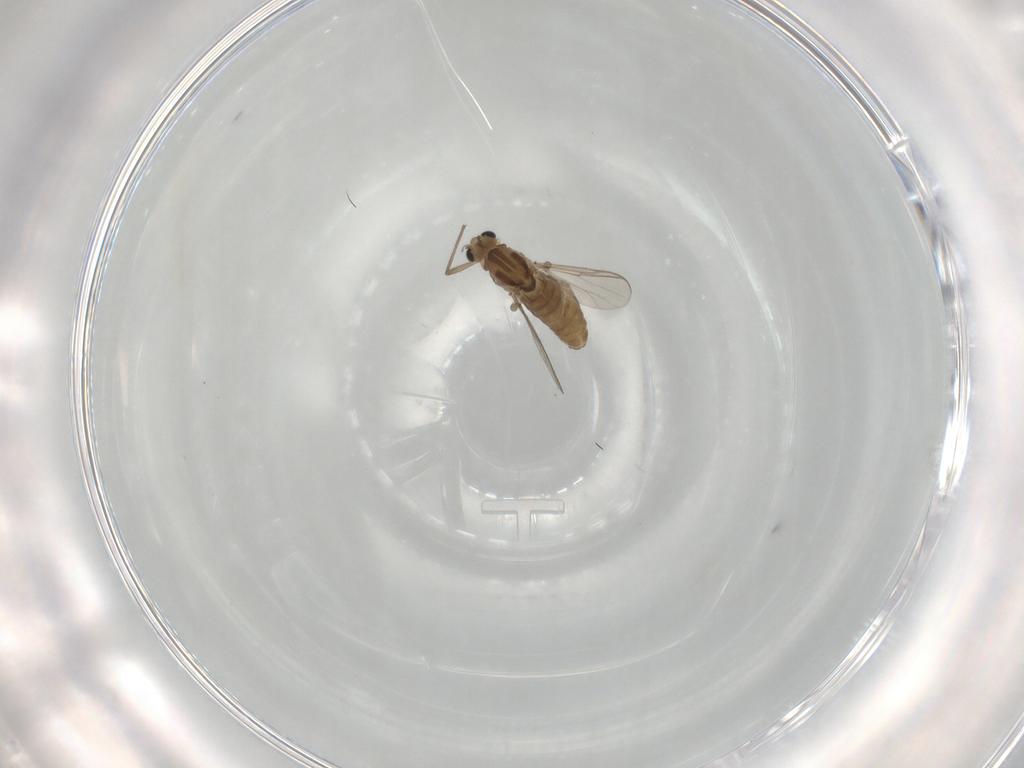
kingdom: Animalia
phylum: Arthropoda
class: Insecta
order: Diptera
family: Chironomidae
